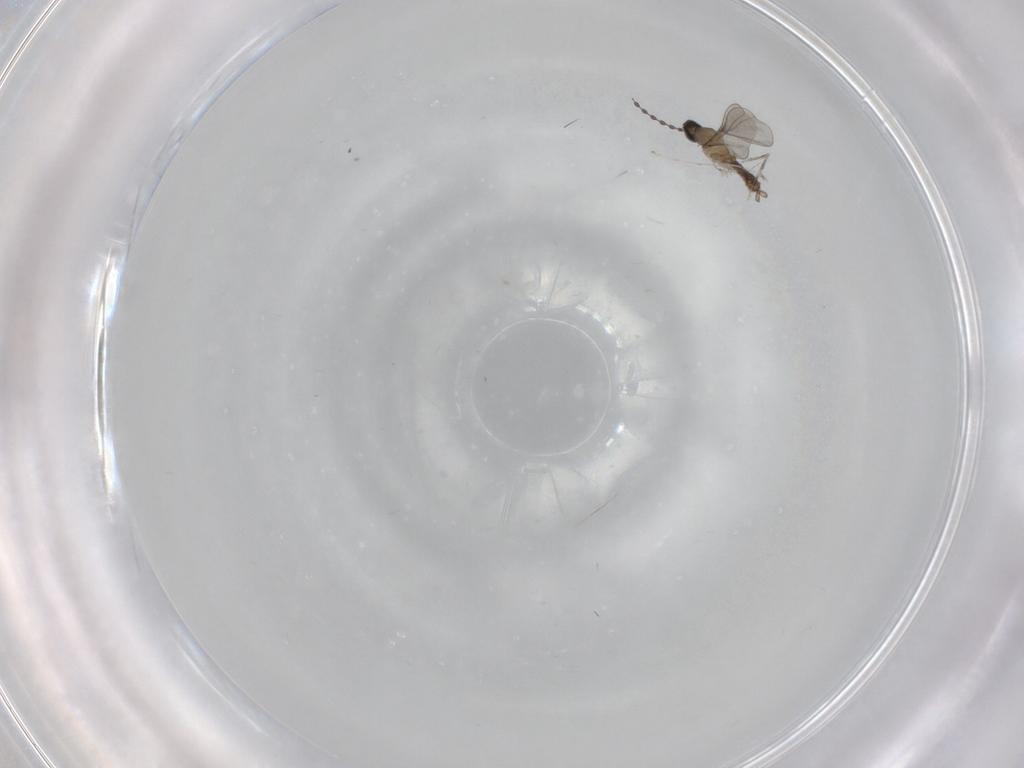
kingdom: Animalia
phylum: Arthropoda
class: Insecta
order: Diptera
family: Cecidomyiidae
